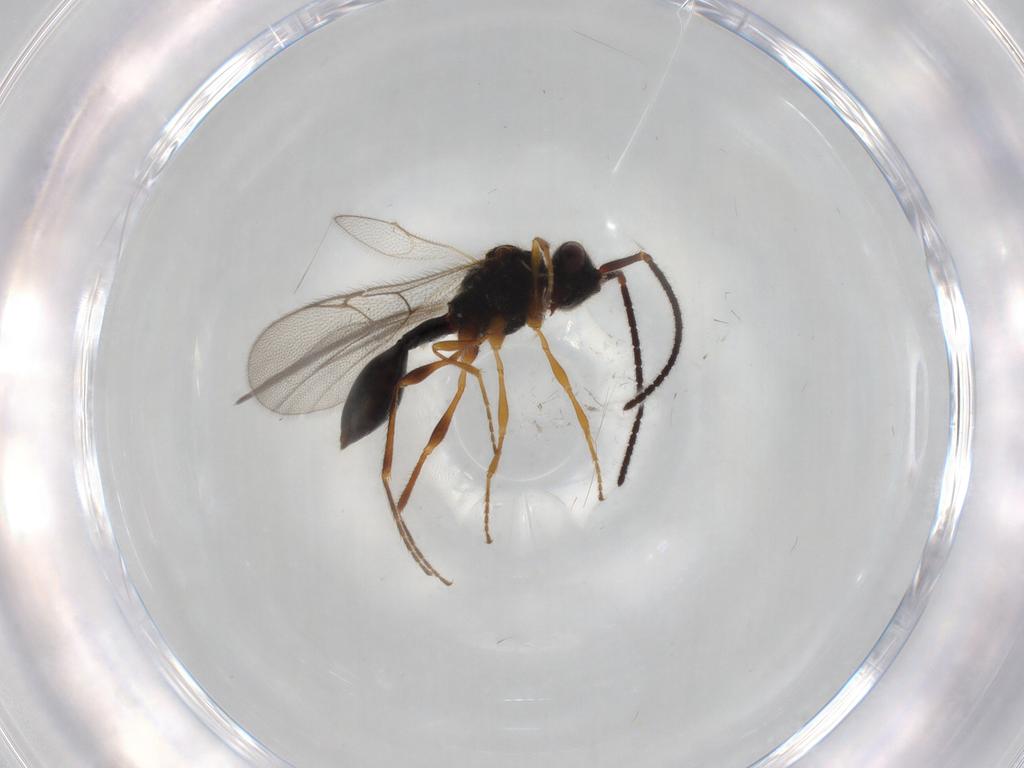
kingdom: Animalia
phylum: Arthropoda
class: Insecta
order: Hymenoptera
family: Diapriidae
